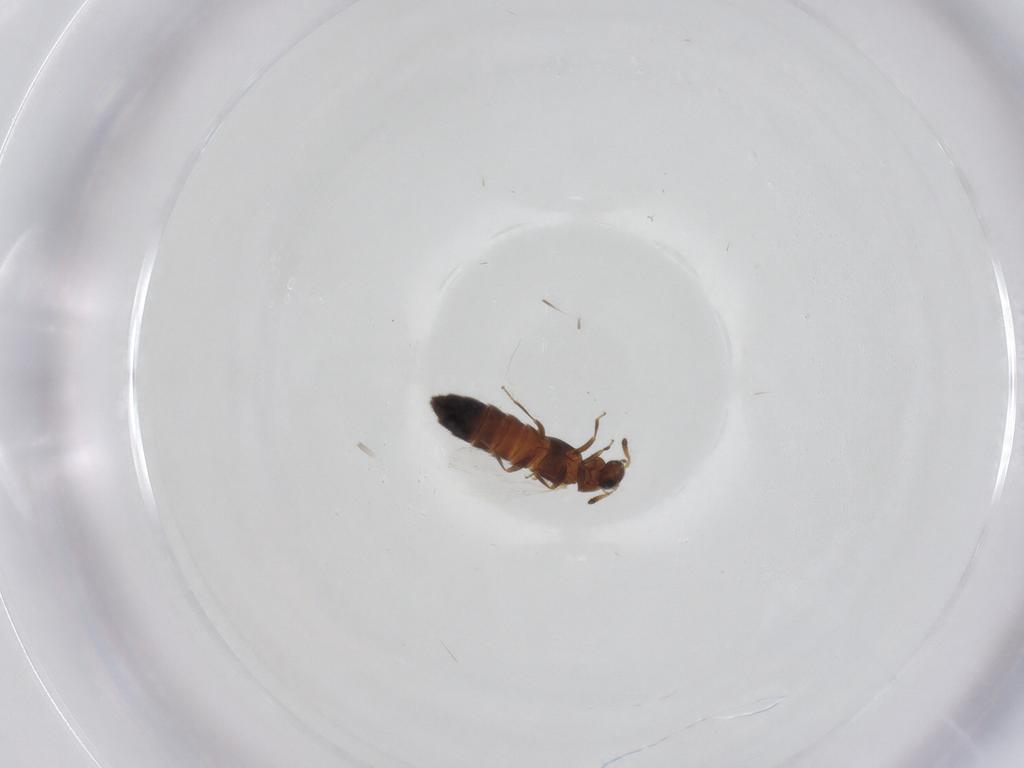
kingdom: Animalia
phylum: Arthropoda
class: Insecta
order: Coleoptera
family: Staphylinidae
